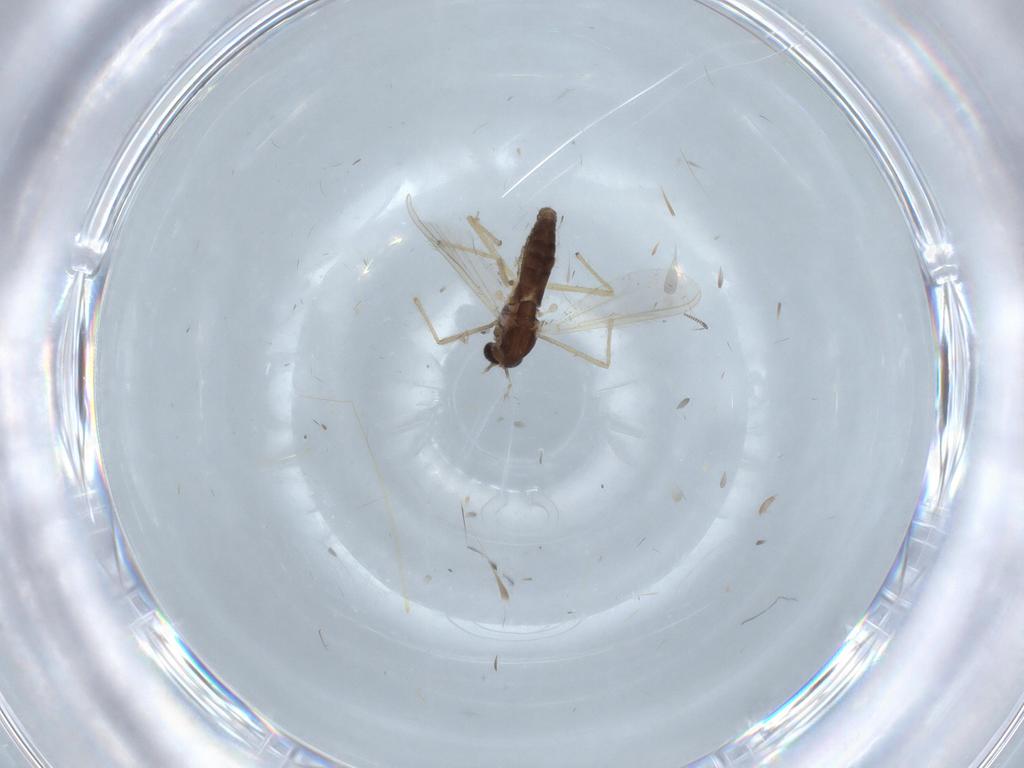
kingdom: Animalia
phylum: Arthropoda
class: Insecta
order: Diptera
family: Chironomidae
